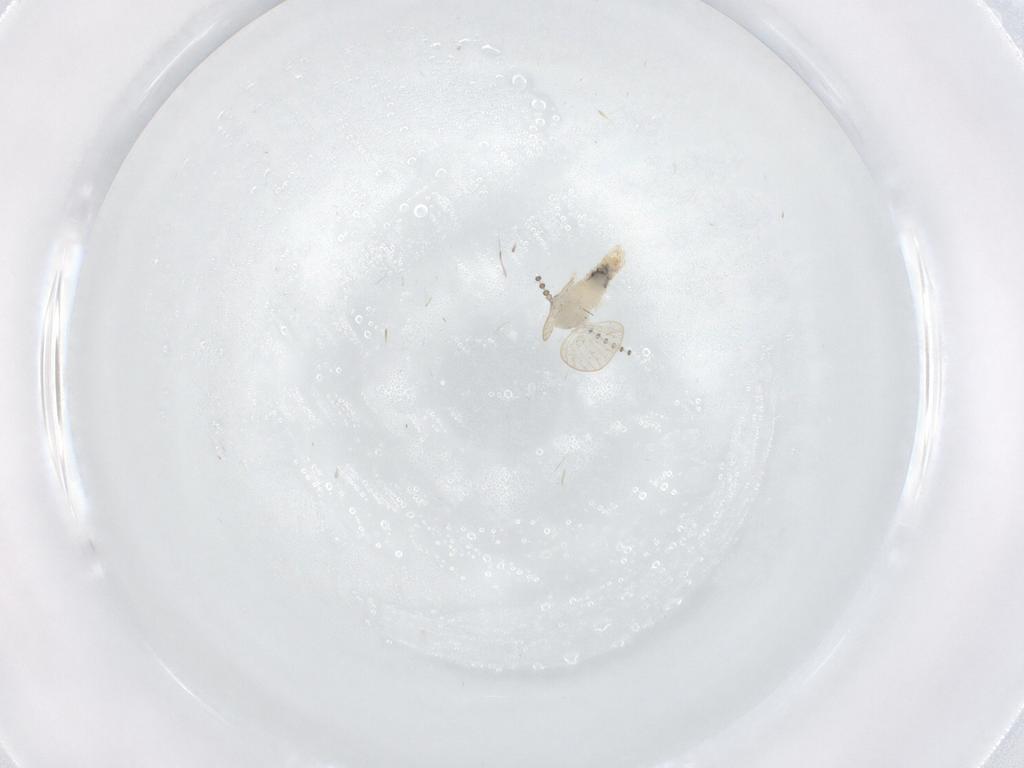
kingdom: Animalia
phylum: Arthropoda
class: Insecta
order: Diptera
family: Psychodidae
